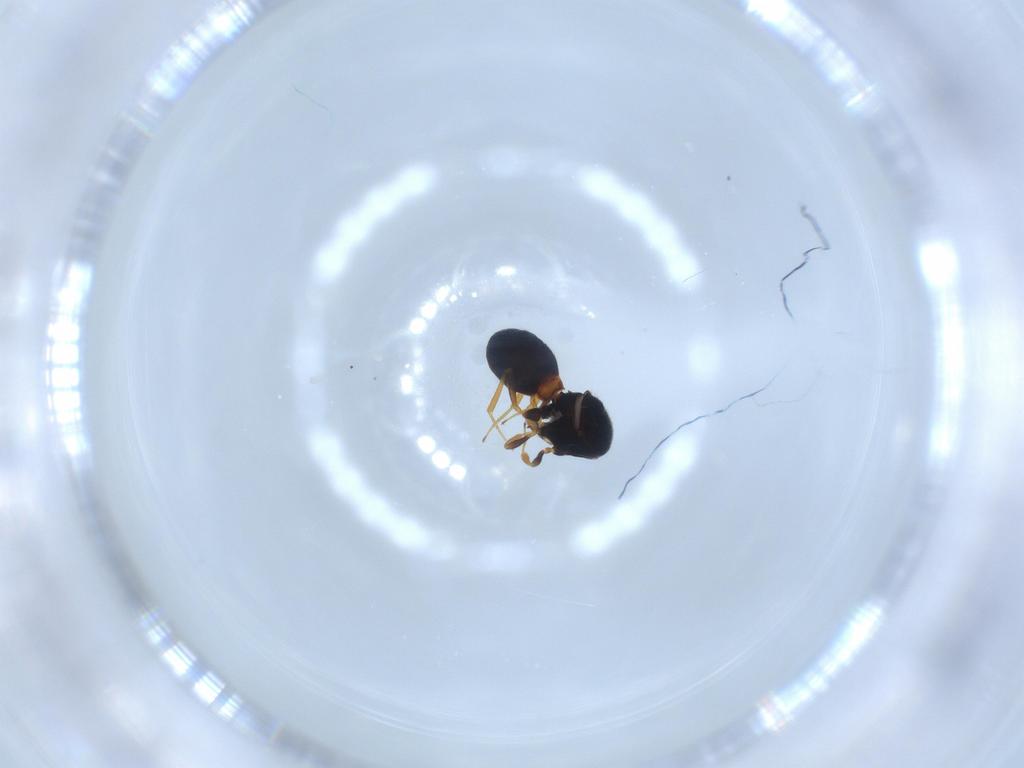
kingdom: Animalia
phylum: Arthropoda
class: Insecta
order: Hymenoptera
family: Scelionidae
